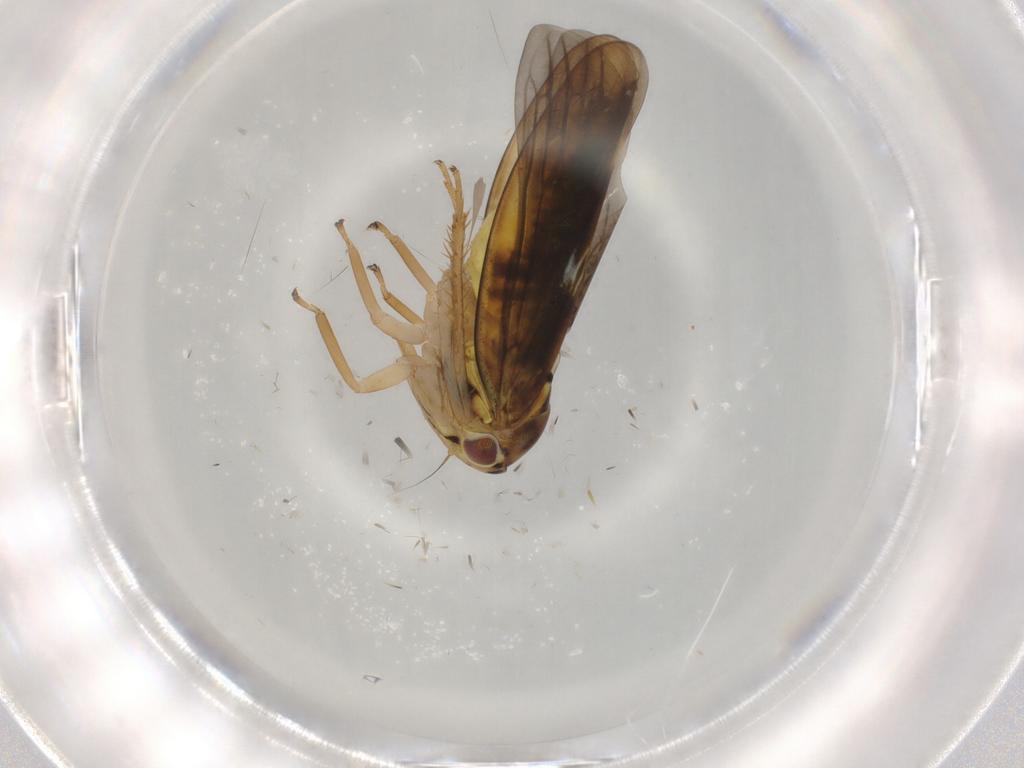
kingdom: Animalia
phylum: Arthropoda
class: Insecta
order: Hemiptera
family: Cicadellidae
